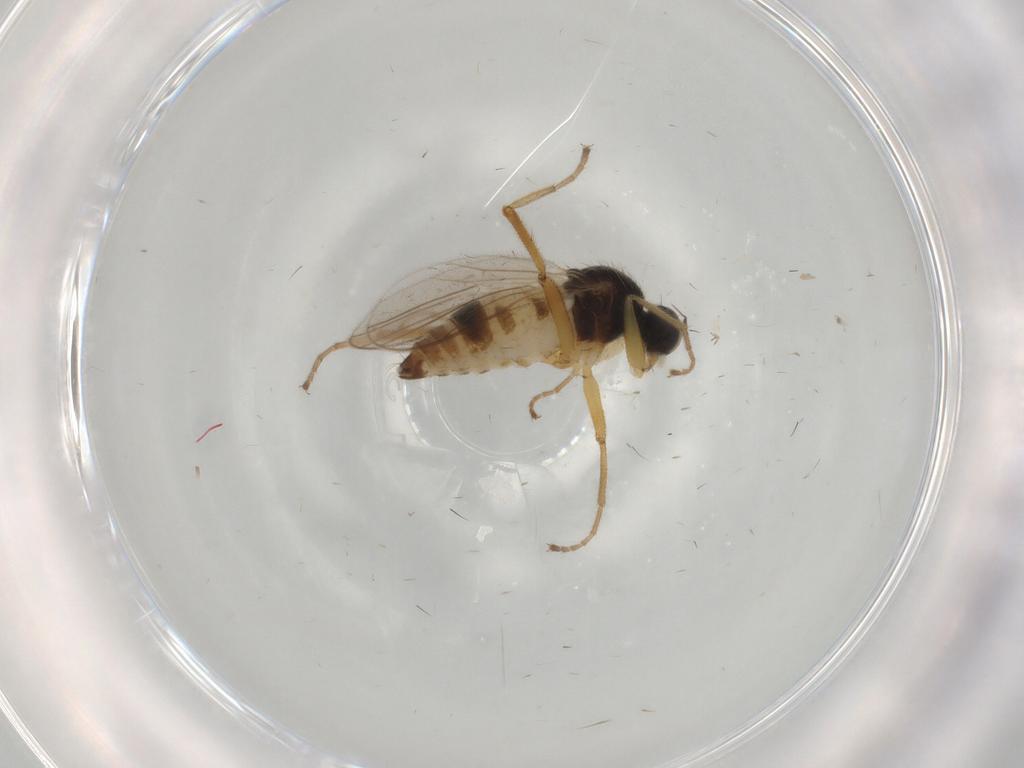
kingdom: Animalia
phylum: Arthropoda
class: Insecta
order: Diptera
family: Hybotidae
